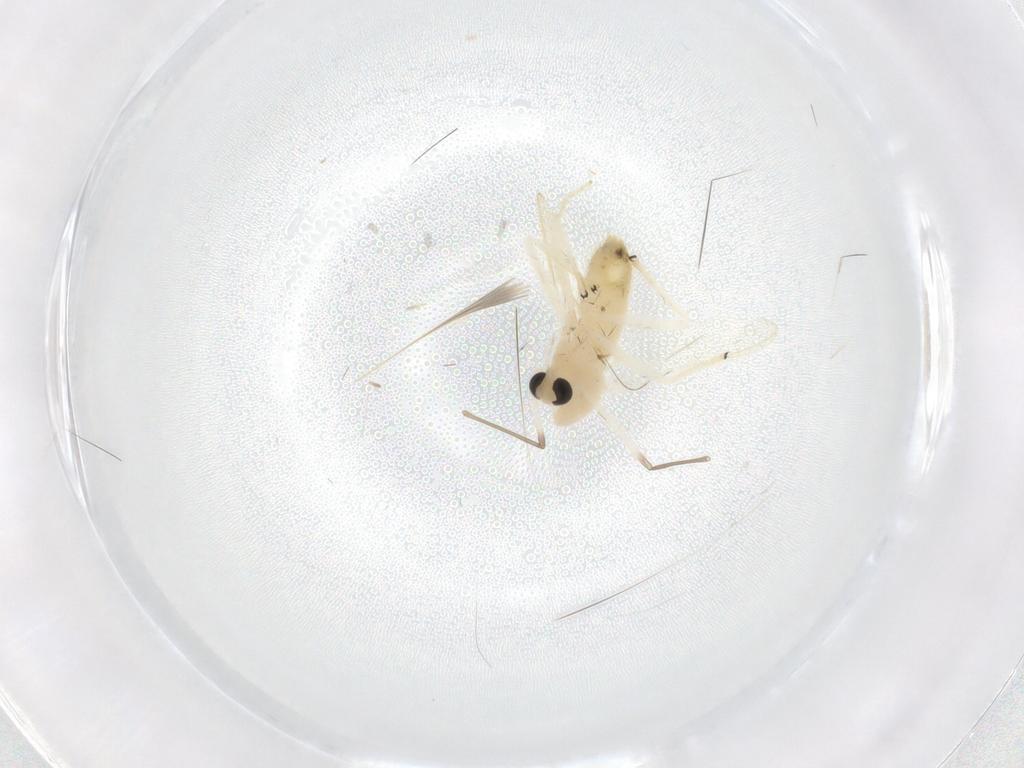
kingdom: Animalia
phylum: Arthropoda
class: Insecta
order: Diptera
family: Chironomidae
